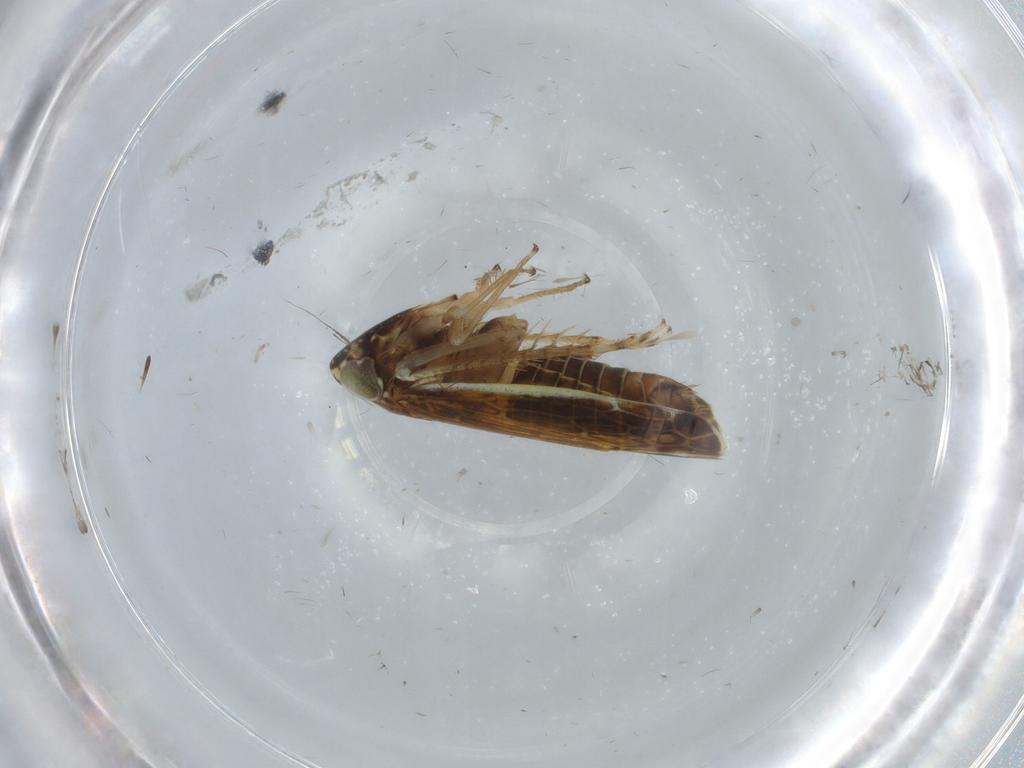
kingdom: Animalia
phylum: Arthropoda
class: Insecta
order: Hemiptera
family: Cicadellidae
